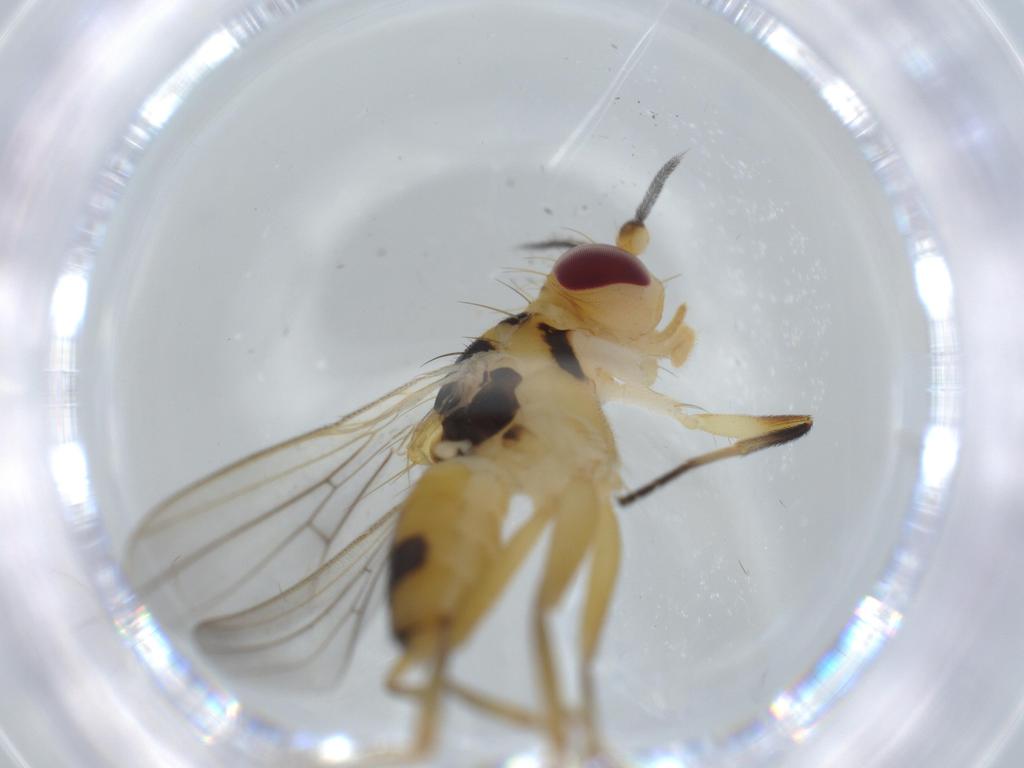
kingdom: Animalia
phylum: Arthropoda
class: Insecta
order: Diptera
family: Clusiidae
